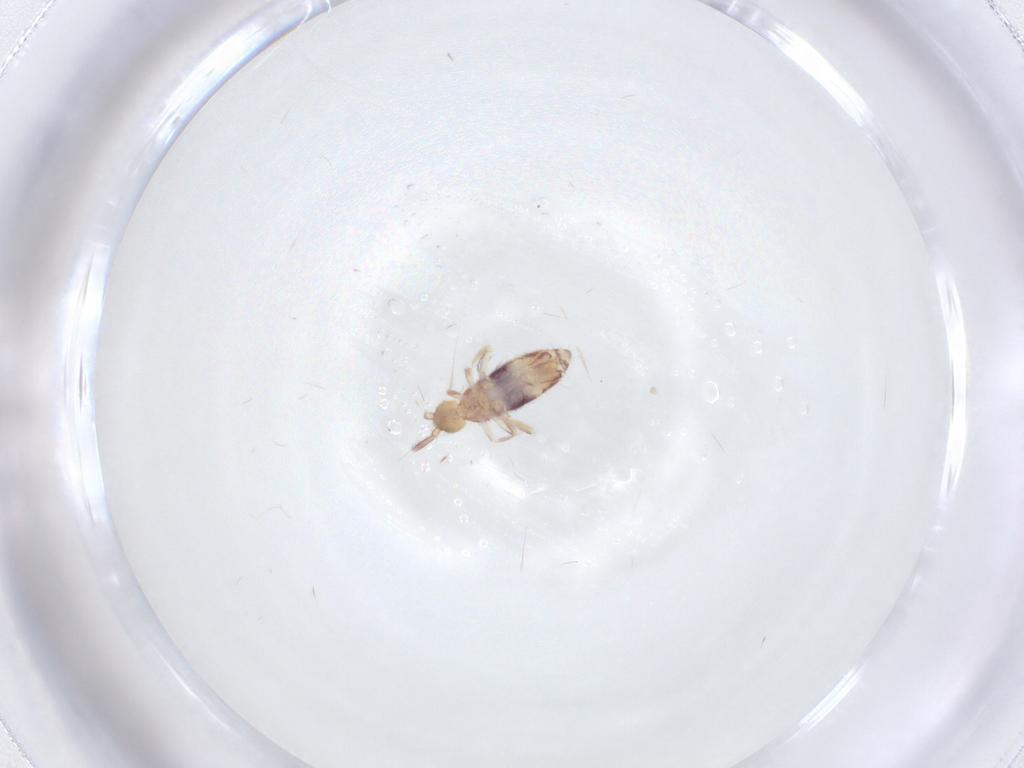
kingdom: Animalia
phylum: Arthropoda
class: Collembola
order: Entomobryomorpha
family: Entomobryidae
